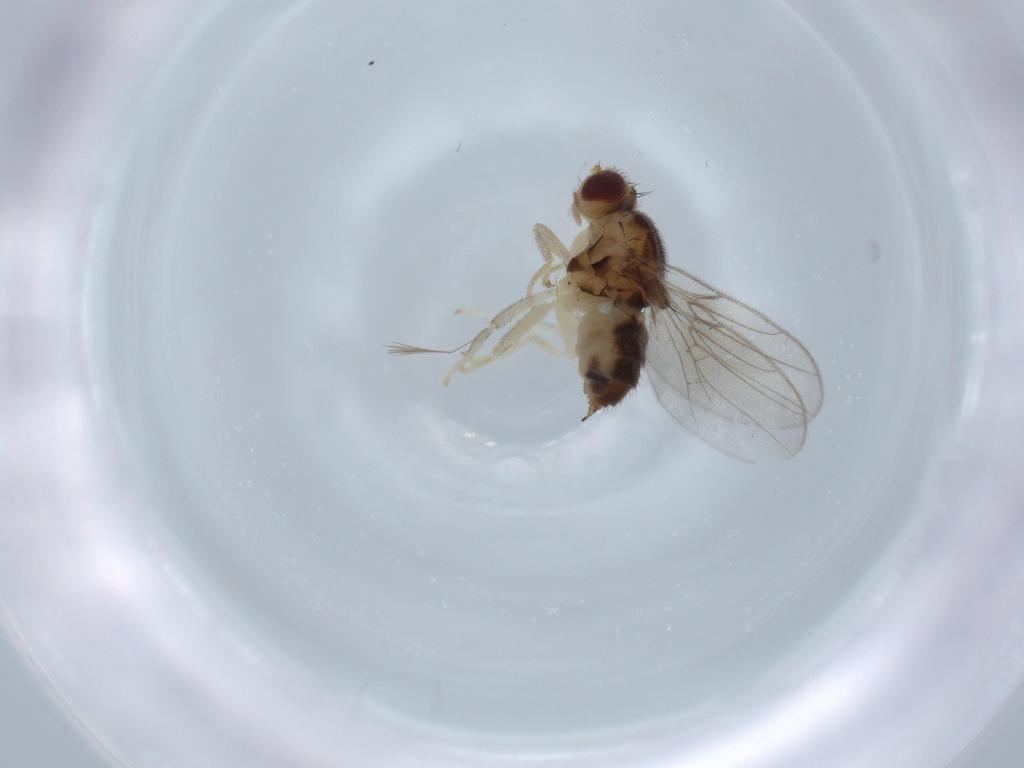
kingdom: Animalia
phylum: Arthropoda
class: Insecta
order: Diptera
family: Chloropidae
